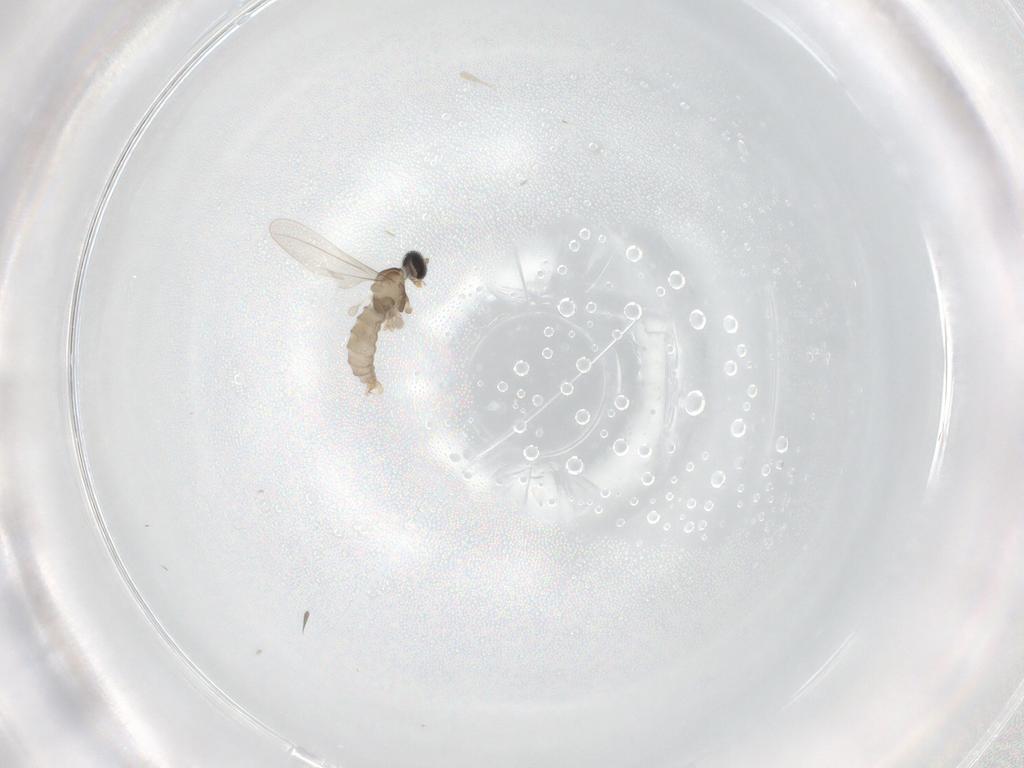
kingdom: Animalia
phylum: Arthropoda
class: Insecta
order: Diptera
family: Cecidomyiidae
